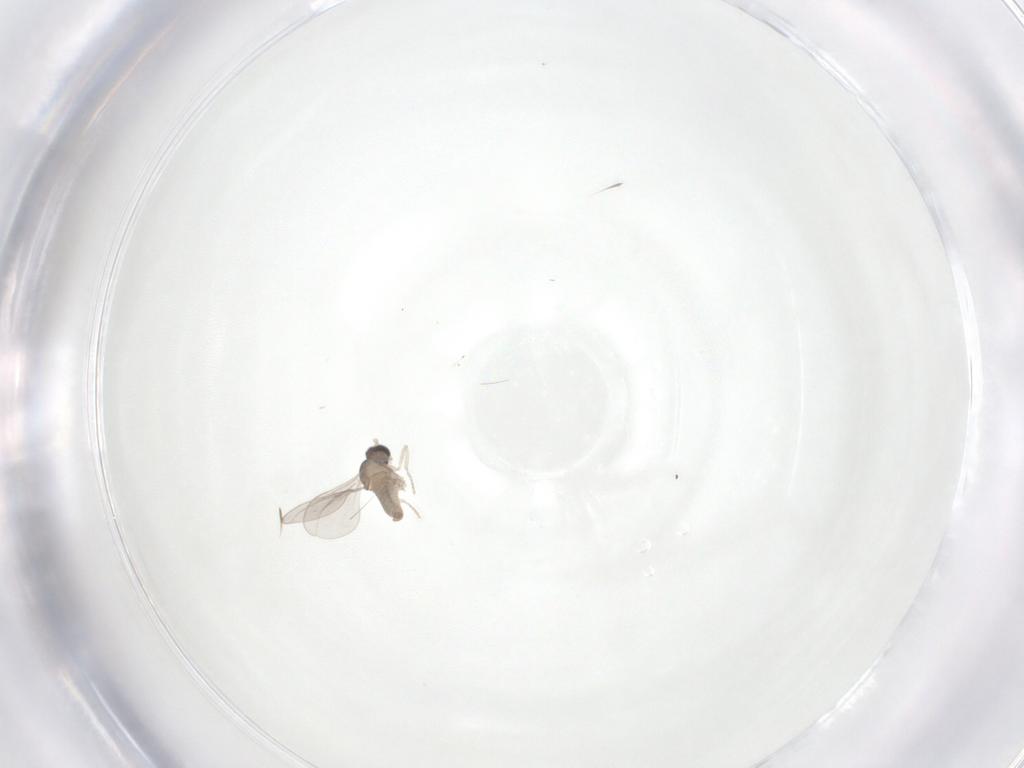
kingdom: Animalia
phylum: Arthropoda
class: Insecta
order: Diptera
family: Cecidomyiidae
